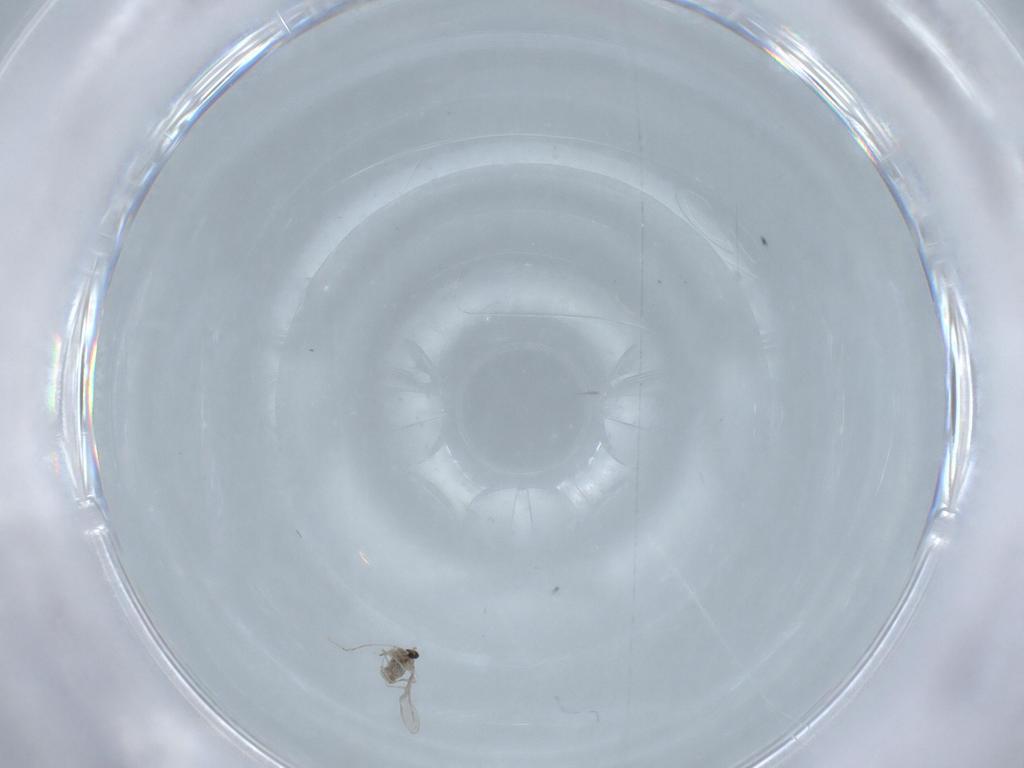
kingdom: Animalia
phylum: Arthropoda
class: Insecta
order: Diptera
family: Cecidomyiidae
